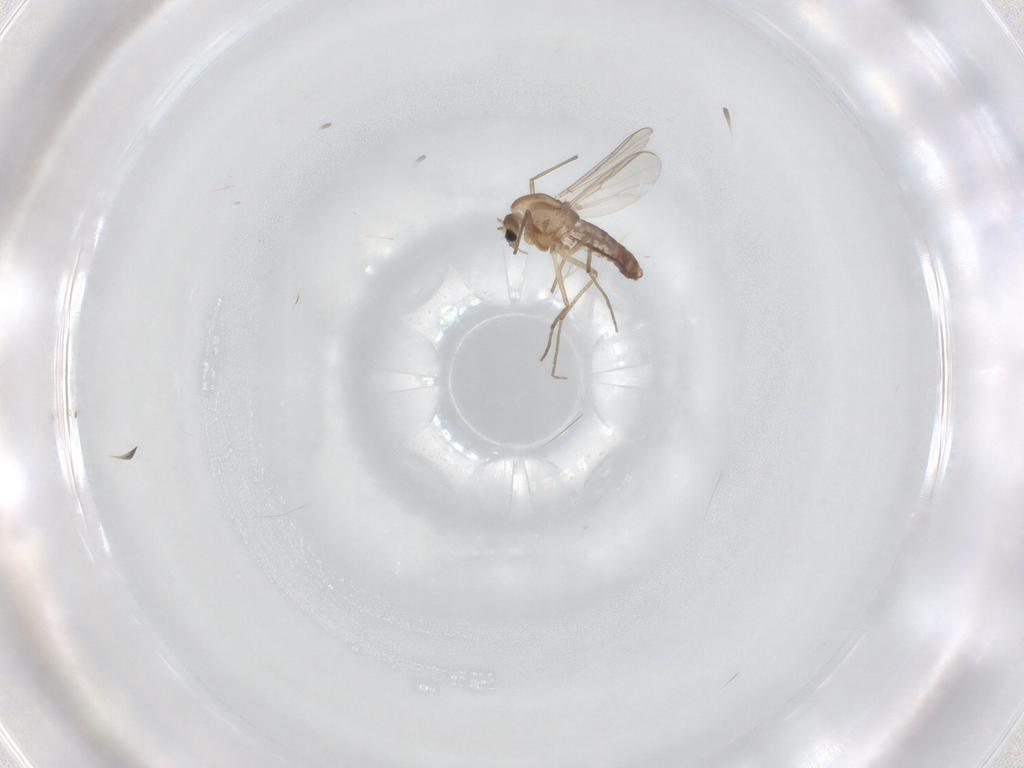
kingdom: Animalia
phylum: Arthropoda
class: Insecta
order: Diptera
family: Chironomidae
